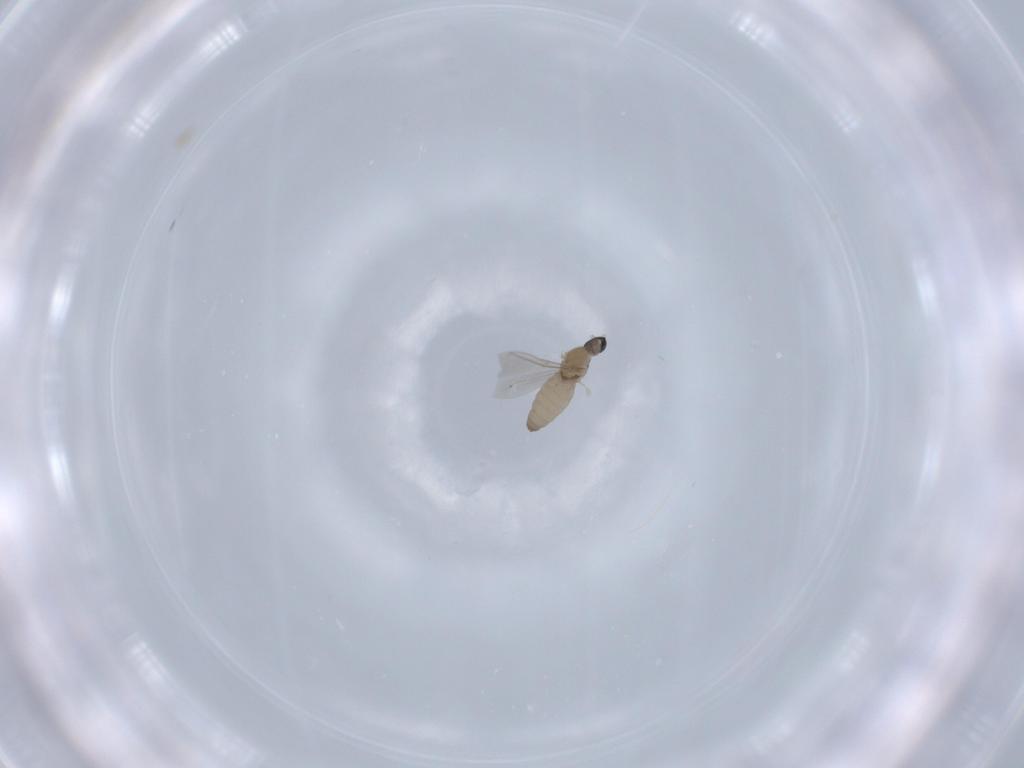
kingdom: Animalia
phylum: Arthropoda
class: Insecta
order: Diptera
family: Cecidomyiidae
